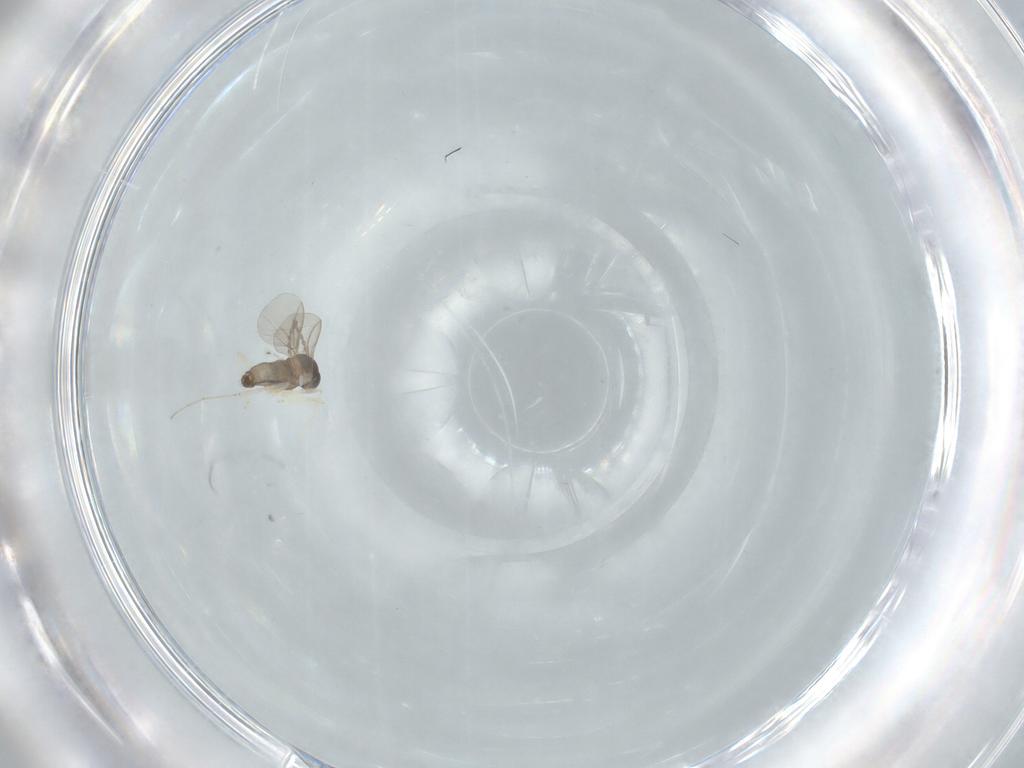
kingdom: Animalia
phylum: Arthropoda
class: Insecta
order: Diptera
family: Cecidomyiidae
